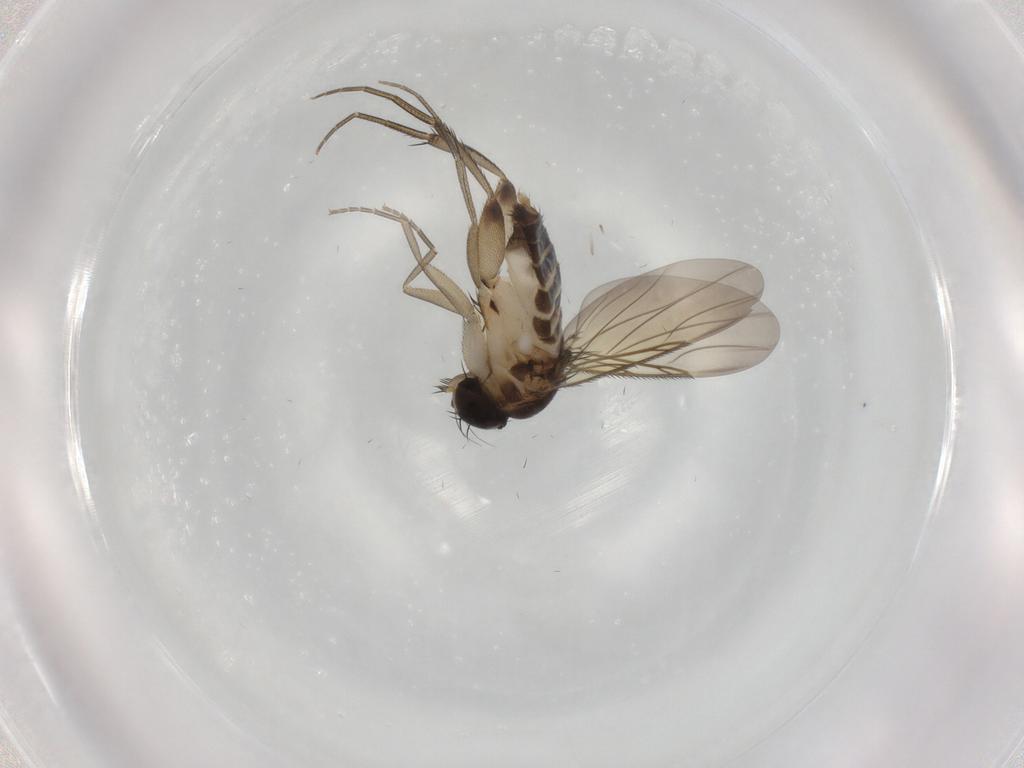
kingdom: Animalia
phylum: Arthropoda
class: Insecta
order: Diptera
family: Phoridae
